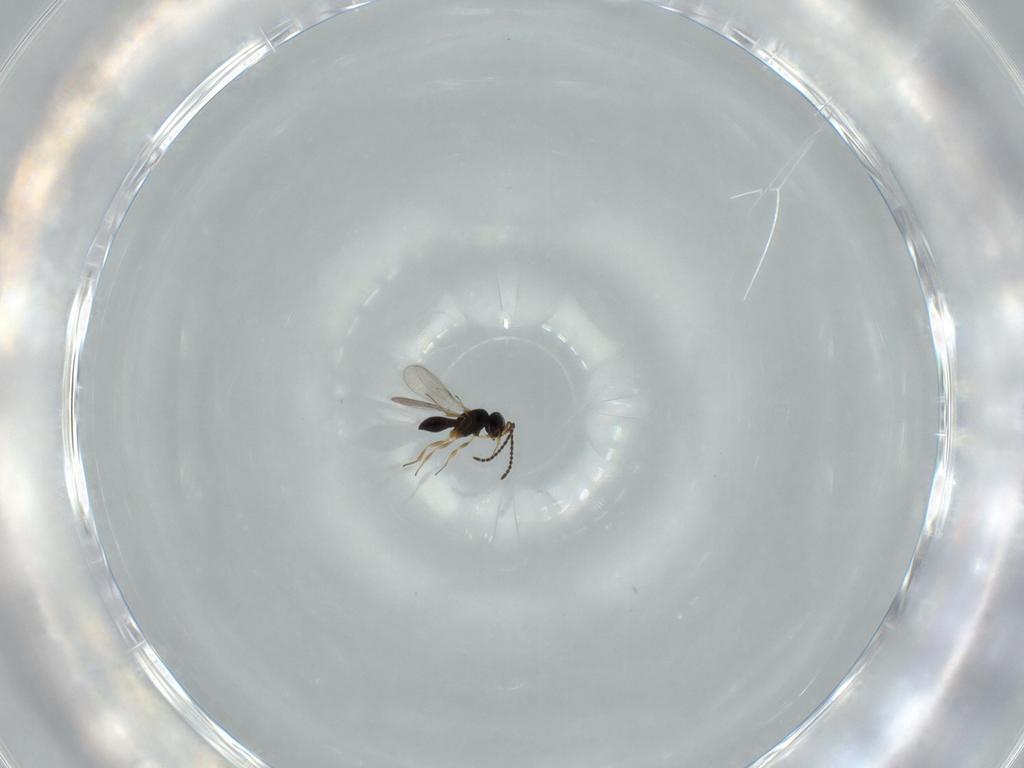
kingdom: Animalia
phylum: Arthropoda
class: Insecta
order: Hymenoptera
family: Scelionidae
